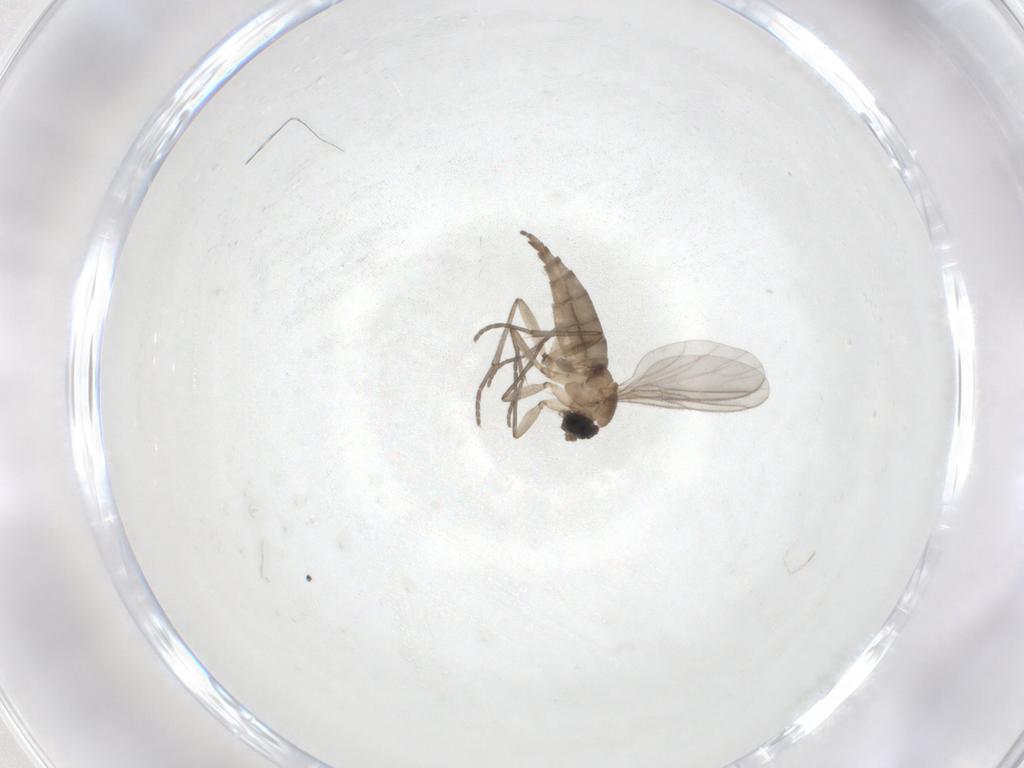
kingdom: Animalia
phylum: Arthropoda
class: Insecta
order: Diptera
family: Sciaridae
